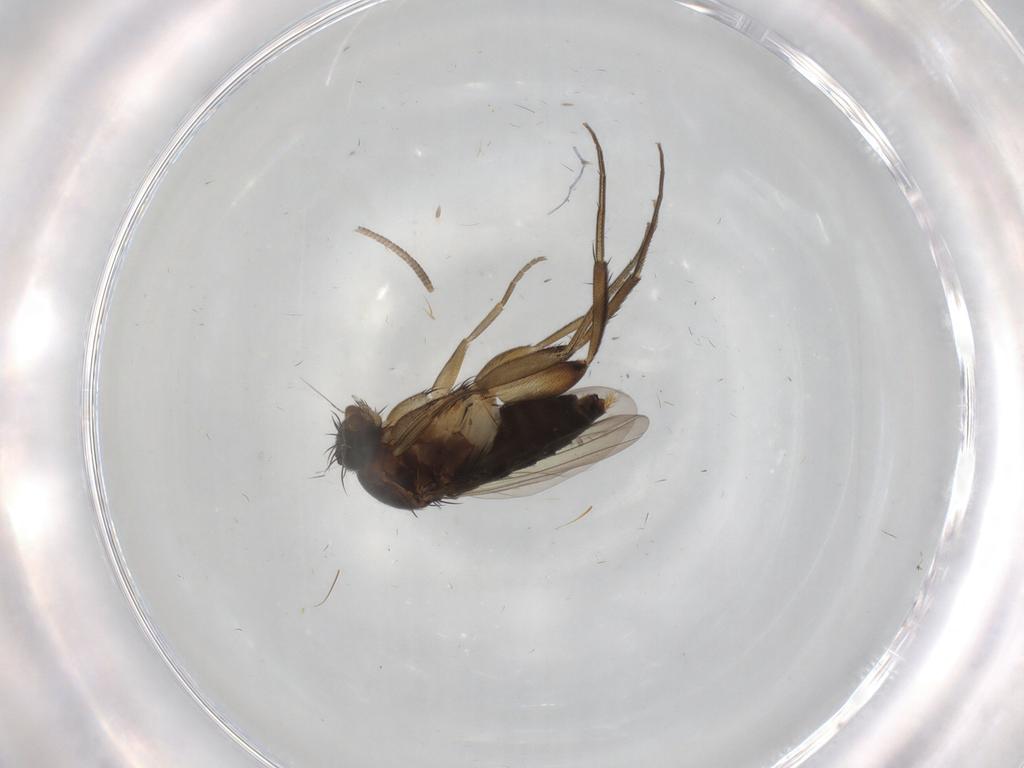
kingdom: Animalia
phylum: Arthropoda
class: Insecta
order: Diptera
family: Phoridae
